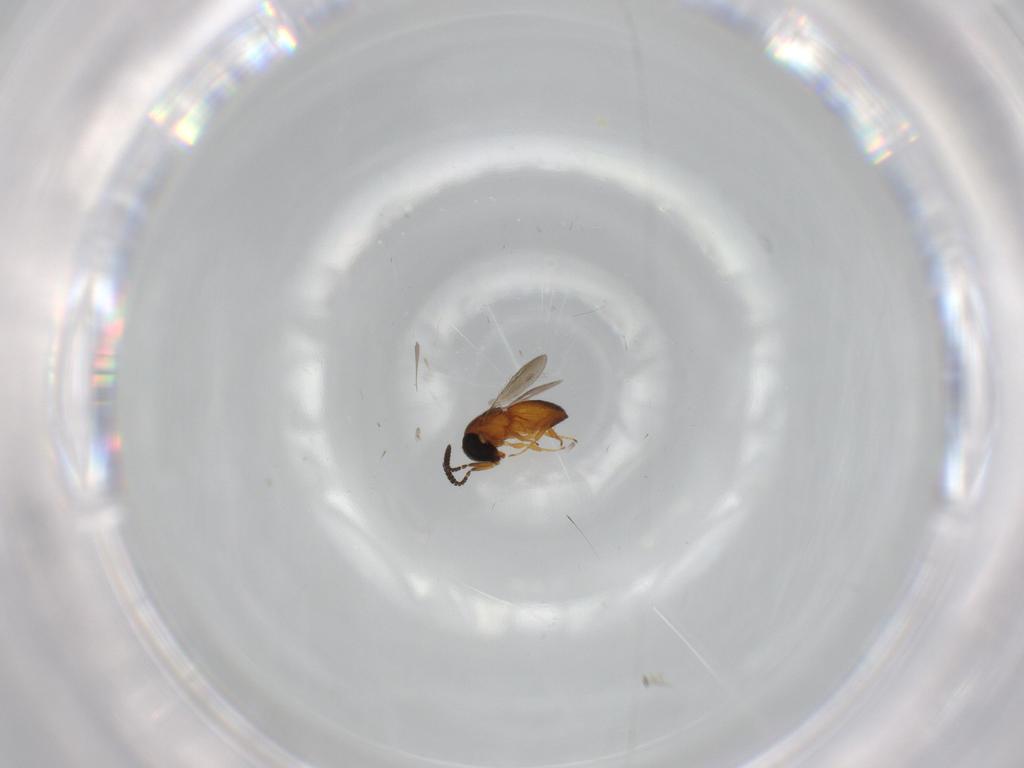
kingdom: Animalia
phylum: Arthropoda
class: Insecta
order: Hymenoptera
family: Scelionidae
